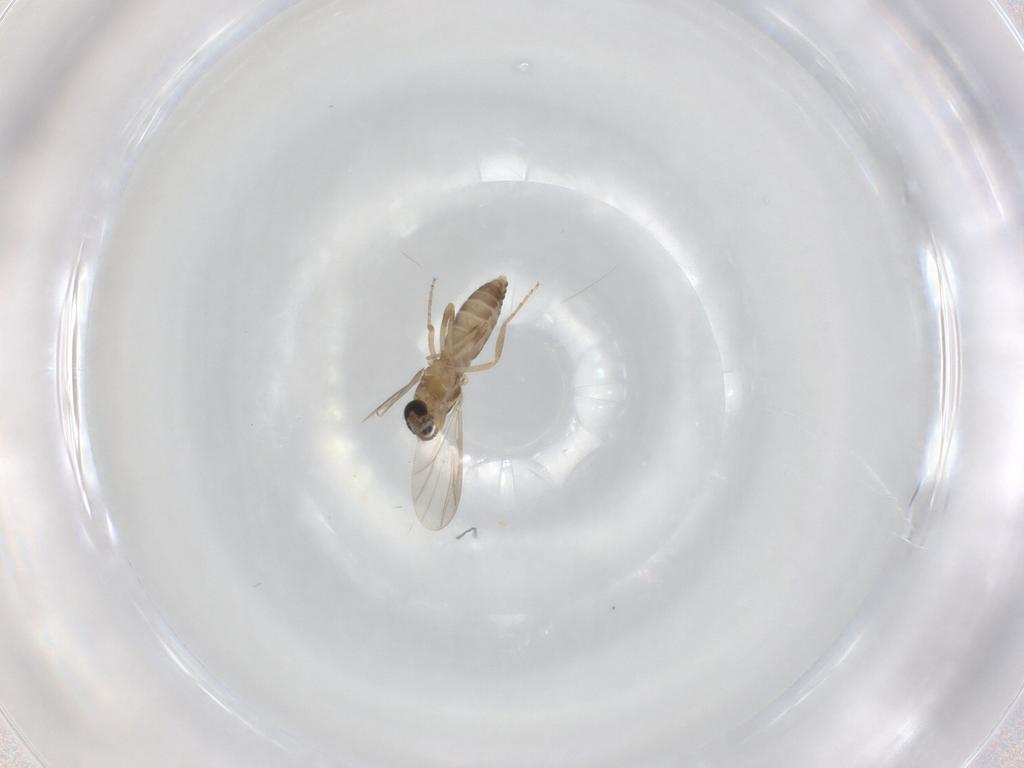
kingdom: Animalia
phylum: Arthropoda
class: Insecta
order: Diptera
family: Ceratopogonidae
